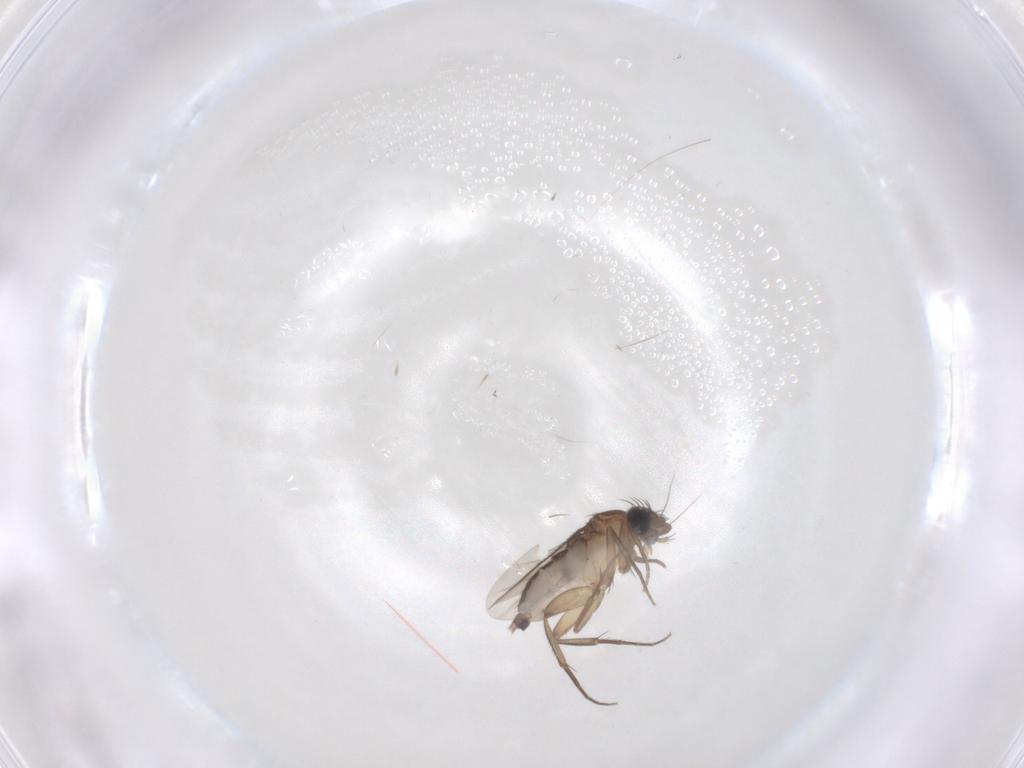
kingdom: Animalia
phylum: Arthropoda
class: Insecta
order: Diptera
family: Phoridae
